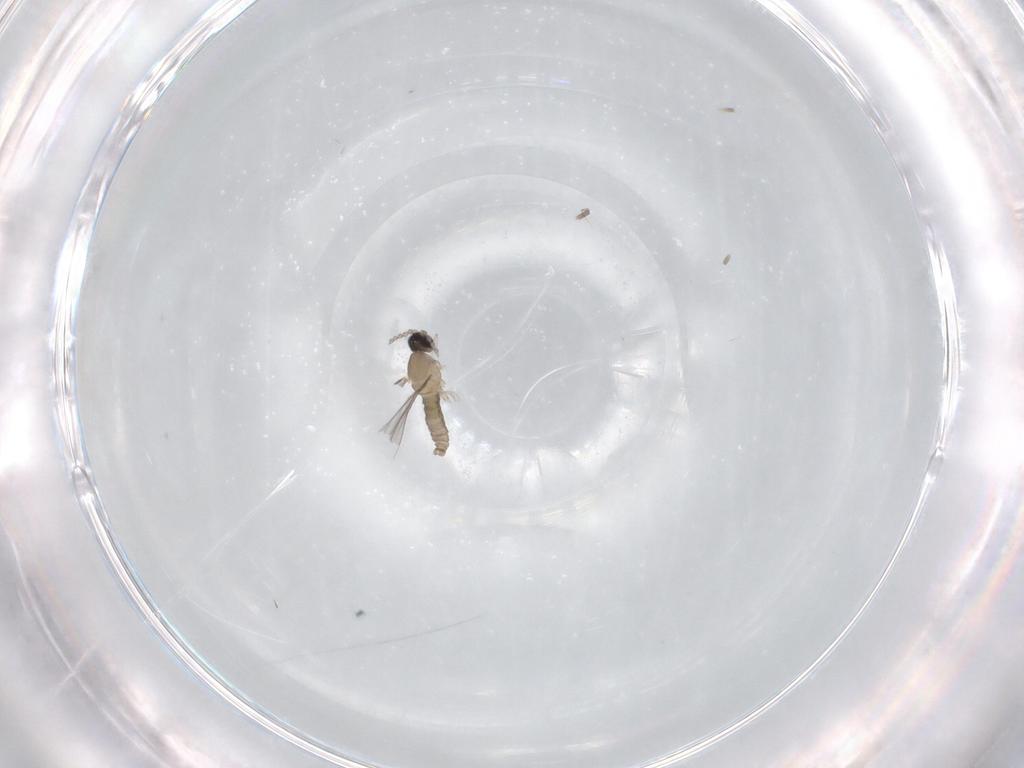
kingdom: Animalia
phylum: Arthropoda
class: Insecta
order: Diptera
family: Cecidomyiidae
